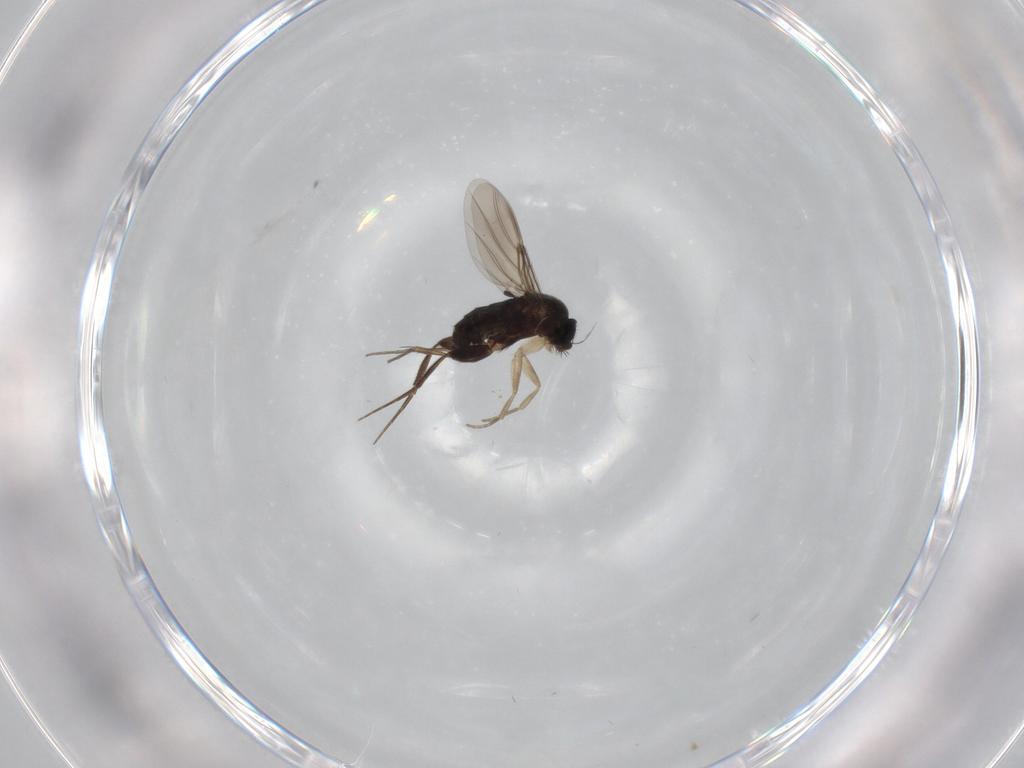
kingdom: Animalia
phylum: Arthropoda
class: Insecta
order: Diptera
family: Phoridae
